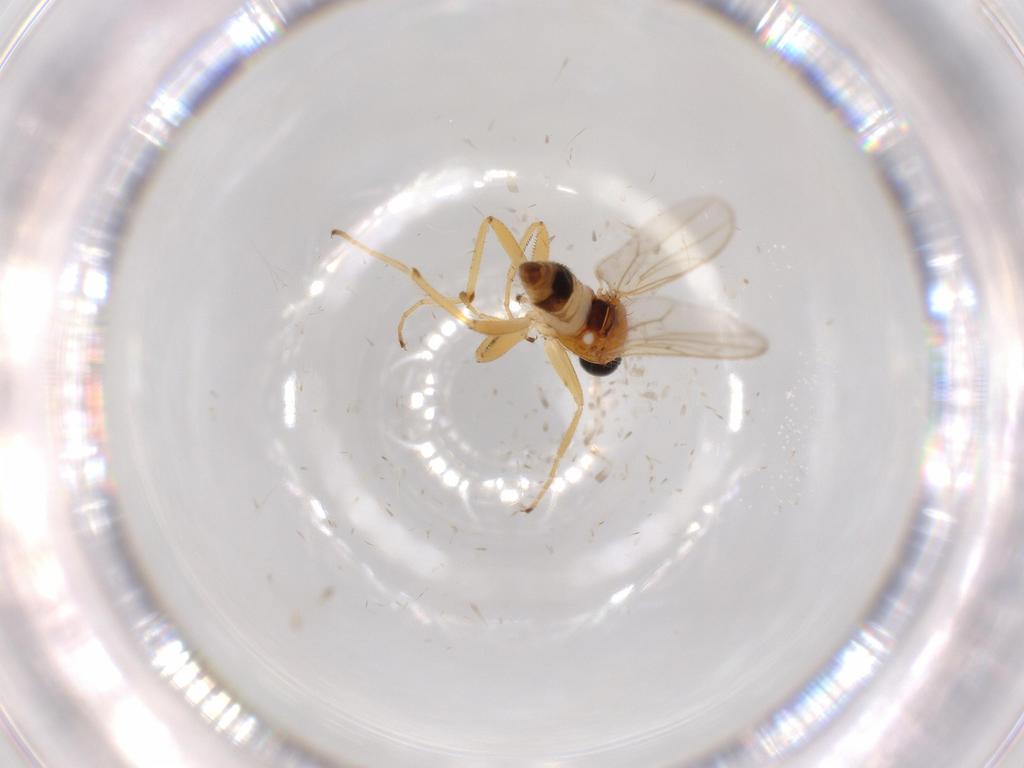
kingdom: Animalia
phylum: Arthropoda
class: Insecta
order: Diptera
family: Hybotidae
